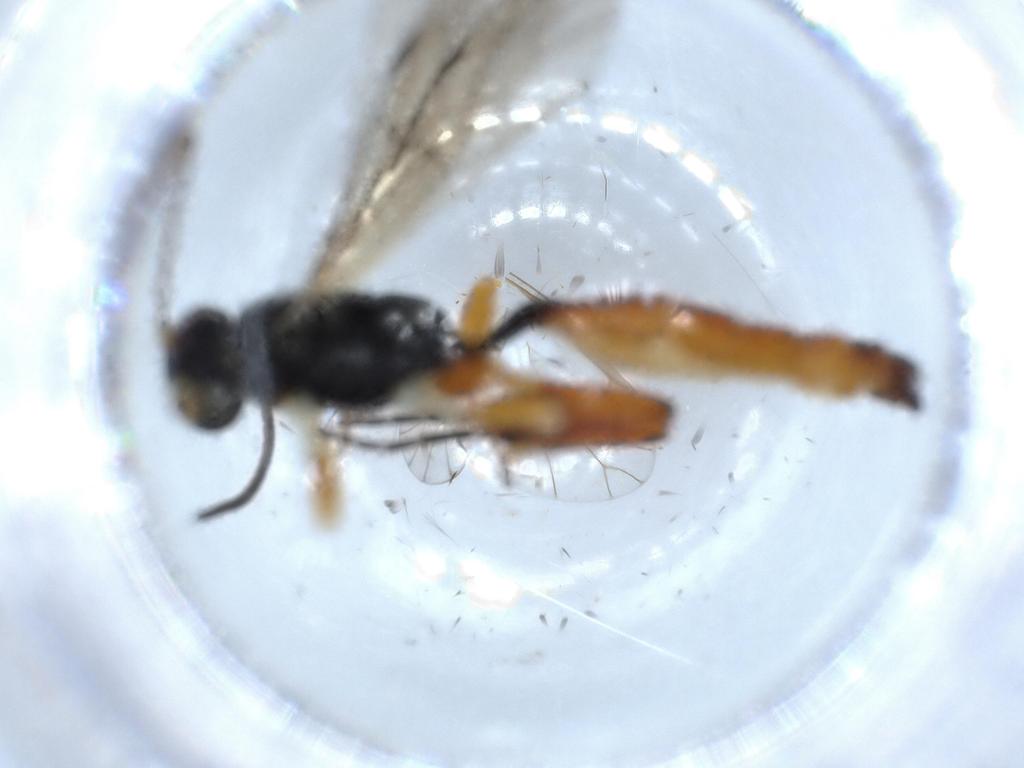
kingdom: Animalia
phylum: Arthropoda
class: Insecta
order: Hymenoptera
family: Ichneumonidae
